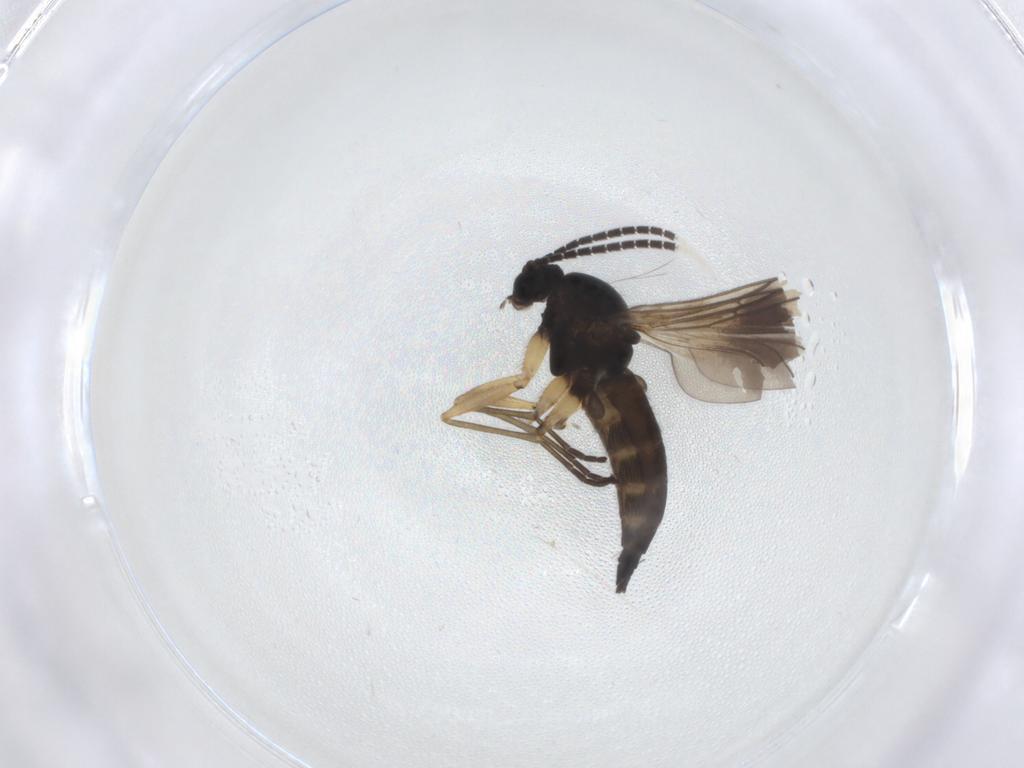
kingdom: Animalia
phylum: Arthropoda
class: Insecta
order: Diptera
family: Sciaridae
